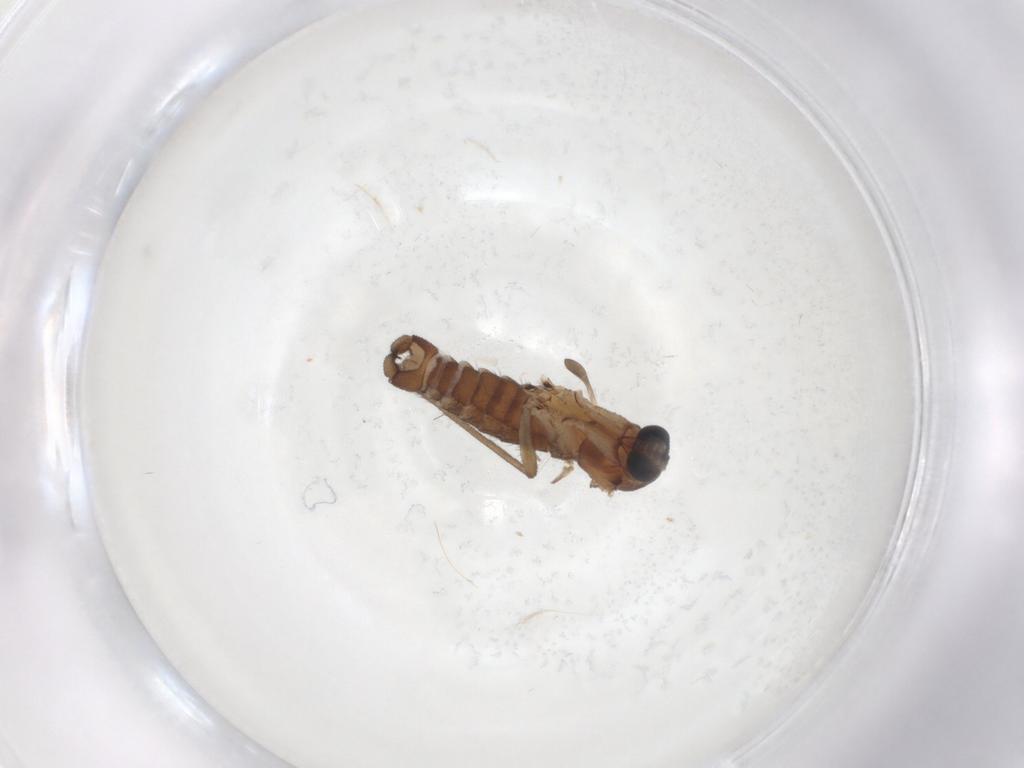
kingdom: Animalia
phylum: Arthropoda
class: Insecta
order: Diptera
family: Sciaridae
